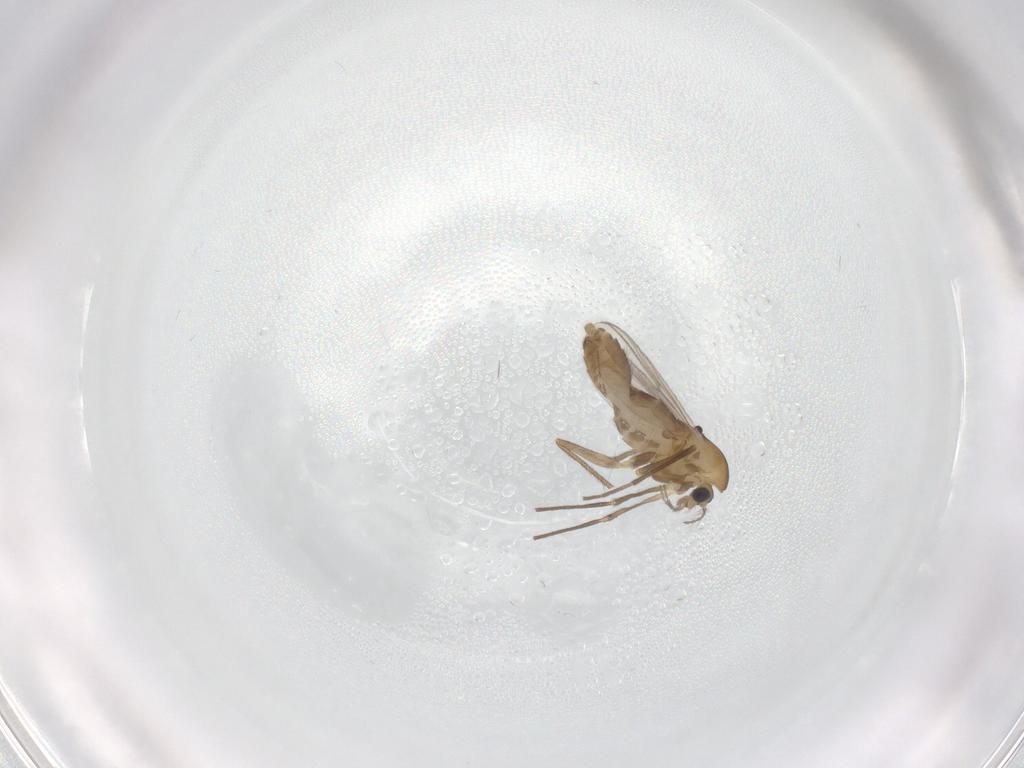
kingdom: Animalia
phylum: Arthropoda
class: Insecta
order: Diptera
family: Chironomidae
